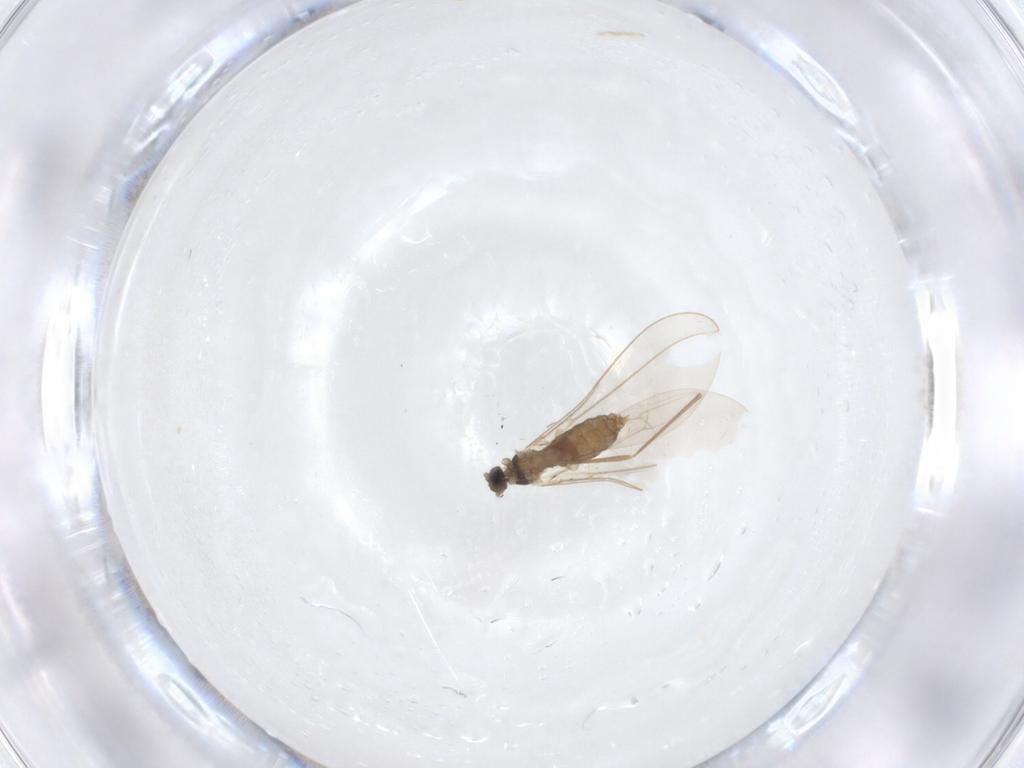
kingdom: Animalia
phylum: Arthropoda
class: Insecta
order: Diptera
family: Cecidomyiidae
